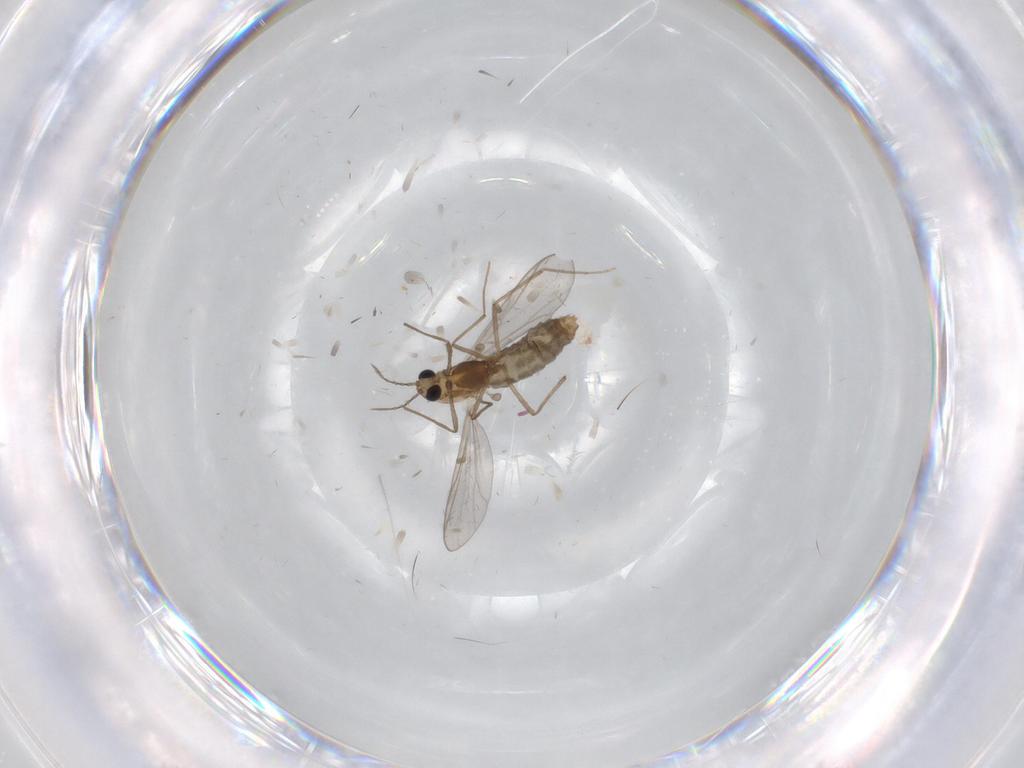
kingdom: Animalia
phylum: Arthropoda
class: Insecta
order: Diptera
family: Chironomidae
